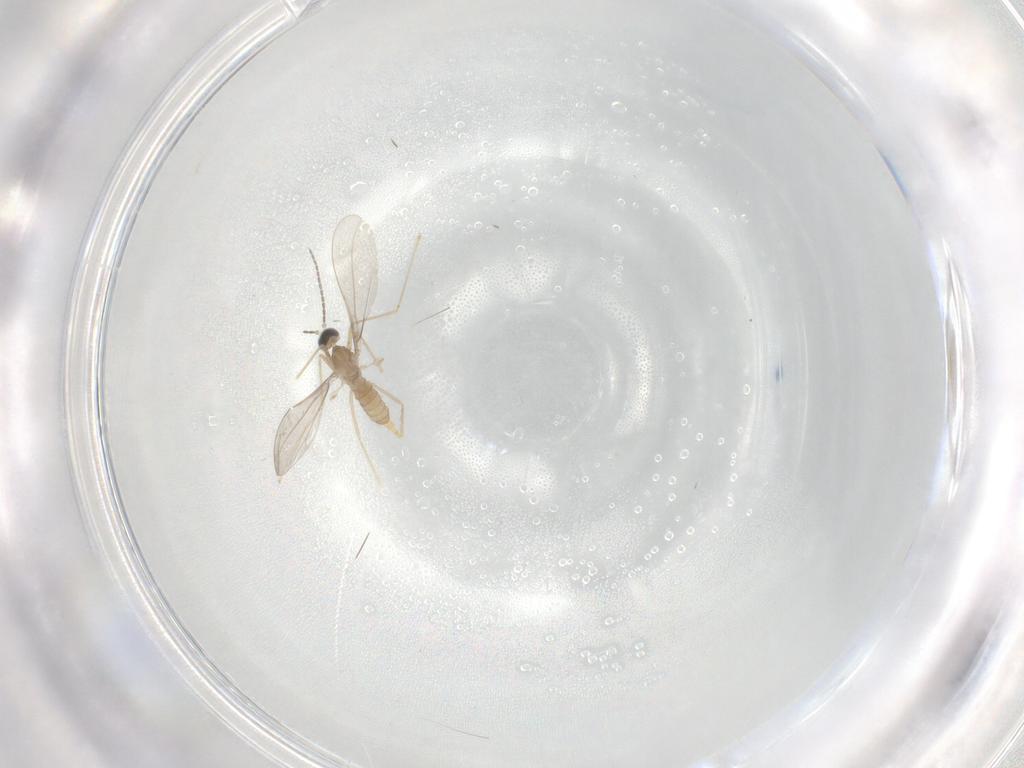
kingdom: Animalia
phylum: Arthropoda
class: Insecta
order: Diptera
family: Cecidomyiidae
